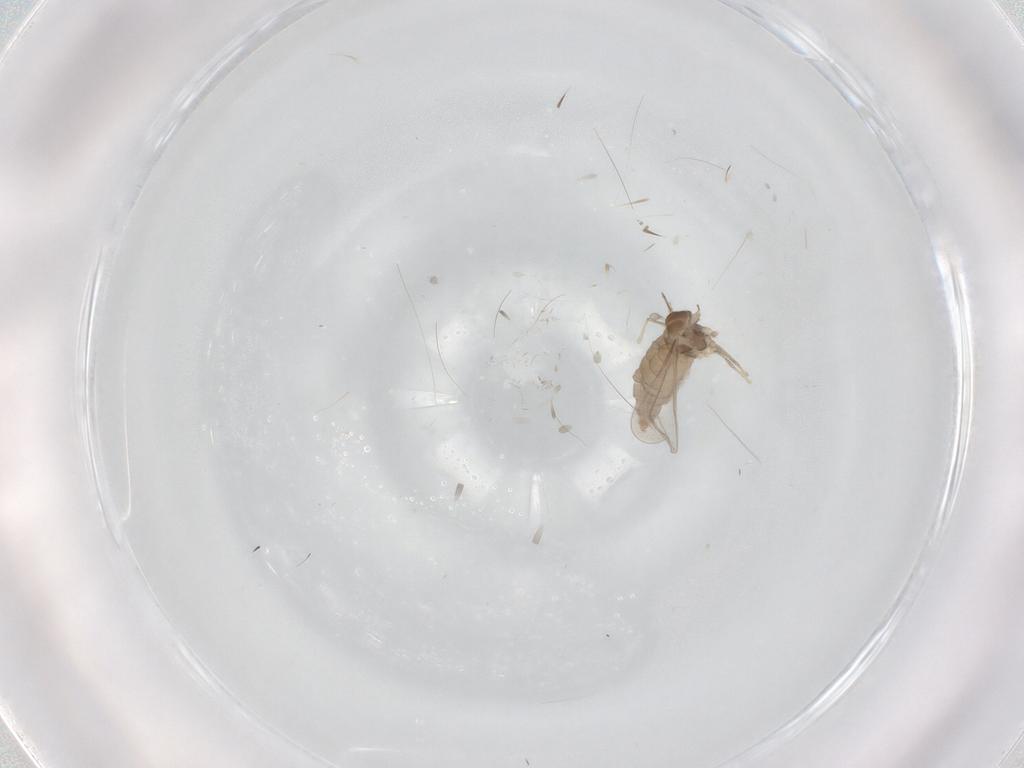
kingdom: Animalia
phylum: Arthropoda
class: Insecta
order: Diptera
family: Cecidomyiidae
